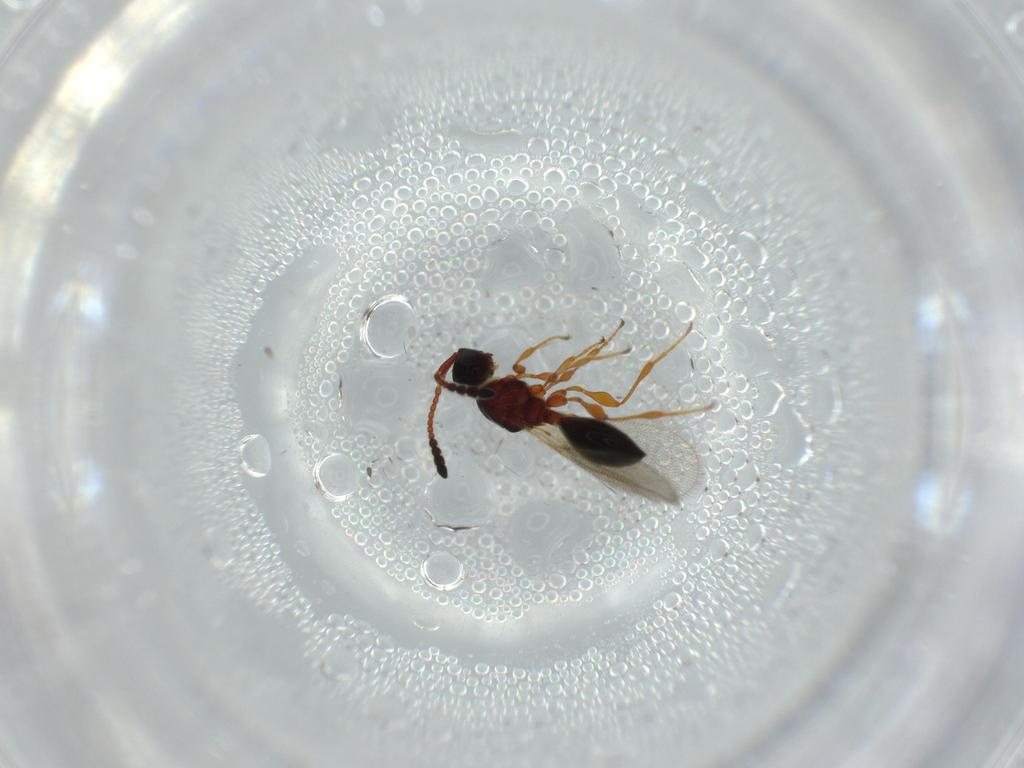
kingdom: Animalia
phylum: Arthropoda
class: Insecta
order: Hymenoptera
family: Diapriidae
